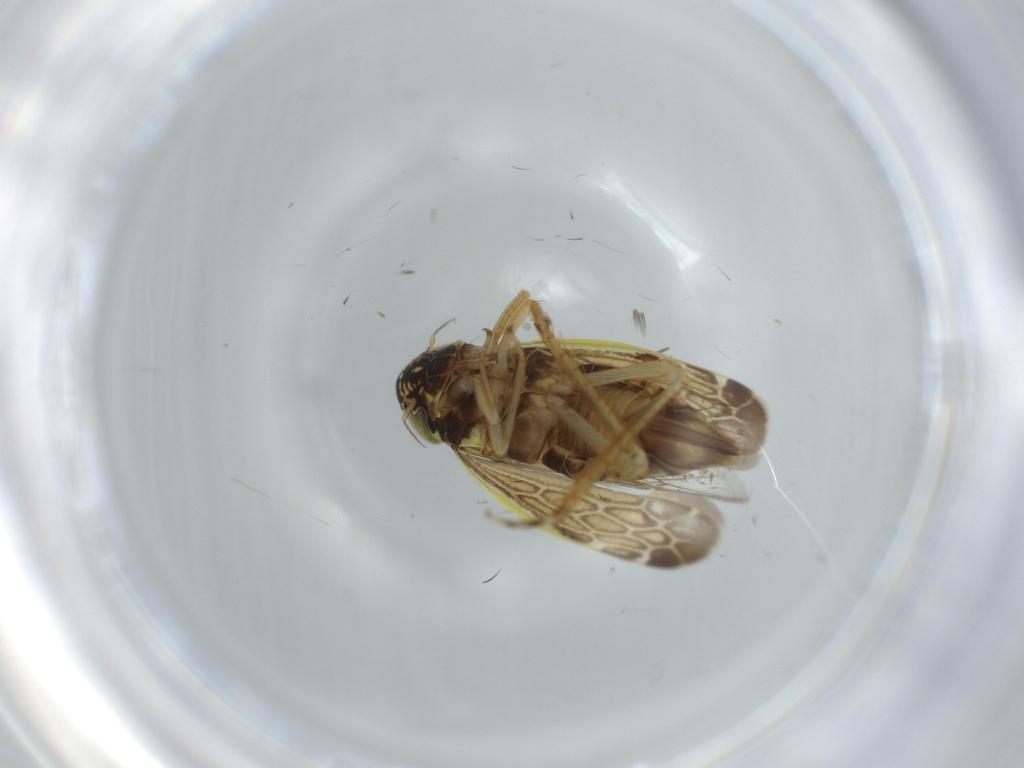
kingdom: Animalia
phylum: Arthropoda
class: Insecta
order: Hemiptera
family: Cicadellidae
